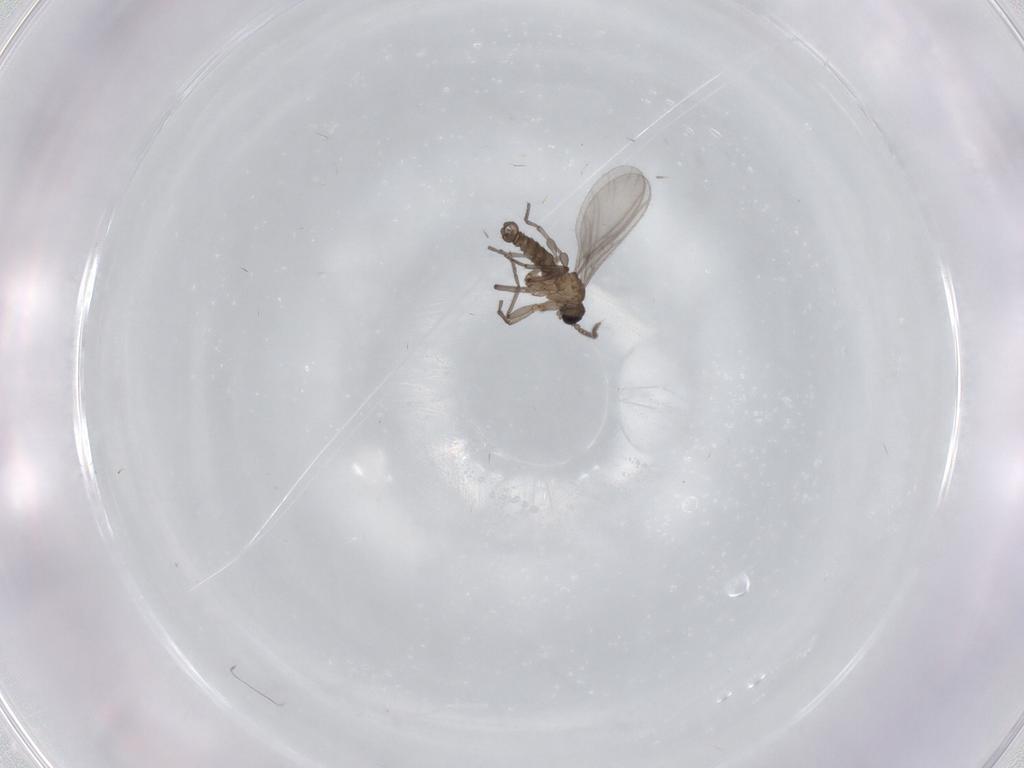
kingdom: Animalia
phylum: Arthropoda
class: Insecta
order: Diptera
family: Sciaridae
